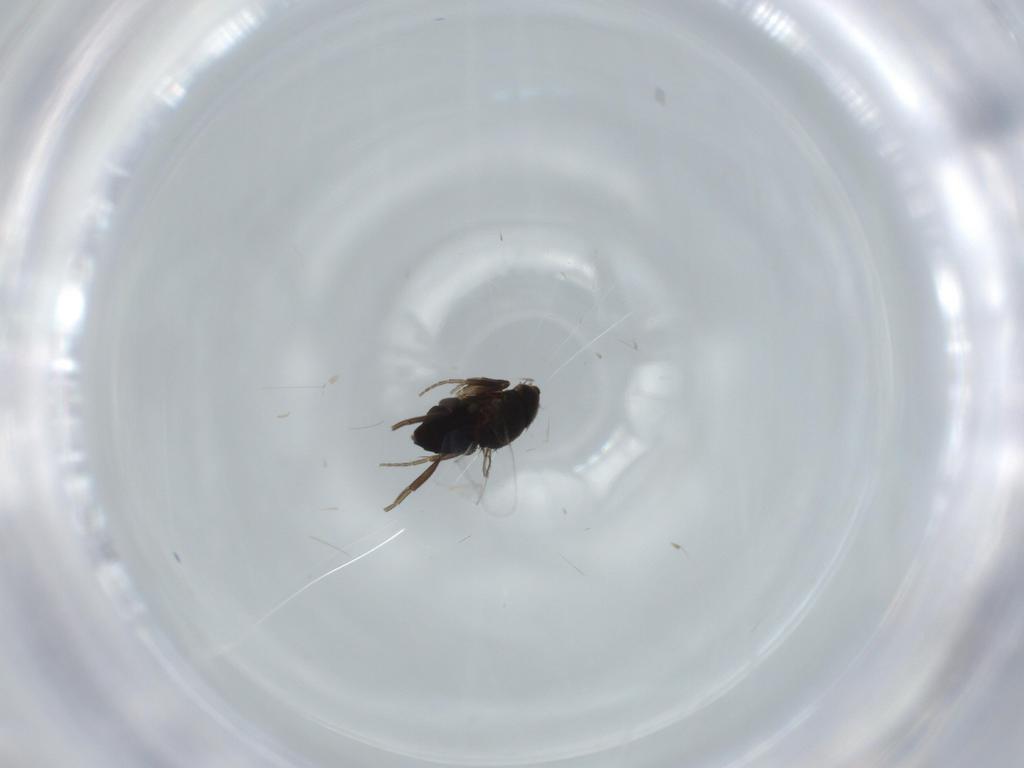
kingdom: Animalia
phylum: Arthropoda
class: Insecta
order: Diptera
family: Phoridae
